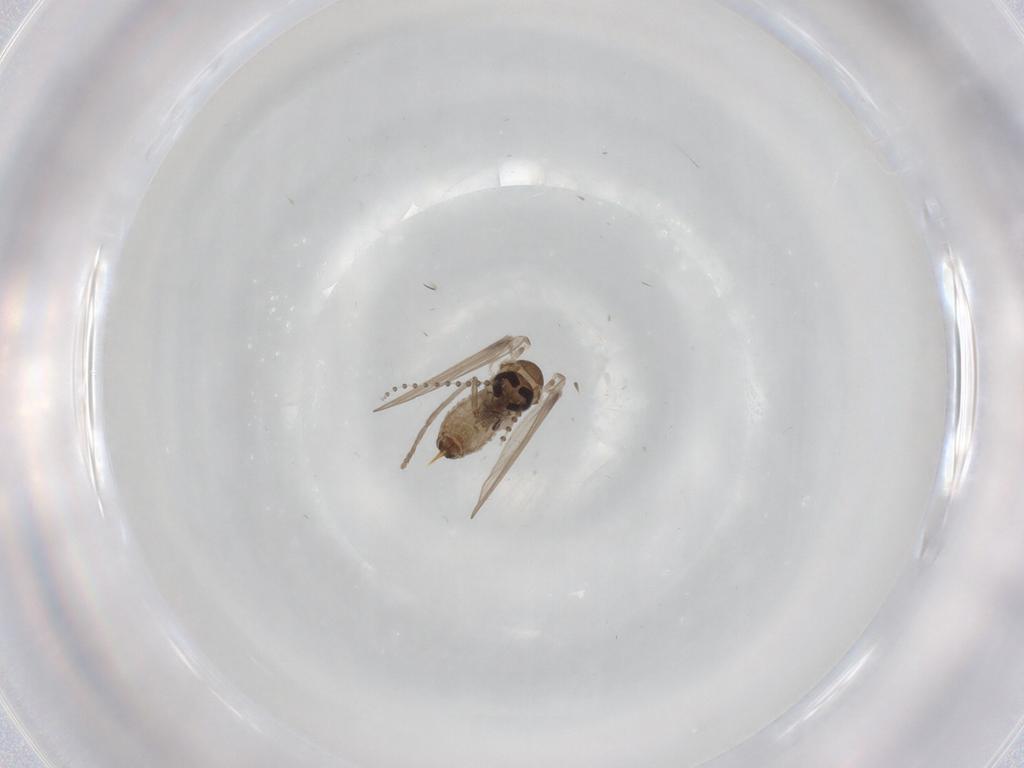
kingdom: Animalia
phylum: Arthropoda
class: Insecta
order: Diptera
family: Psychodidae
